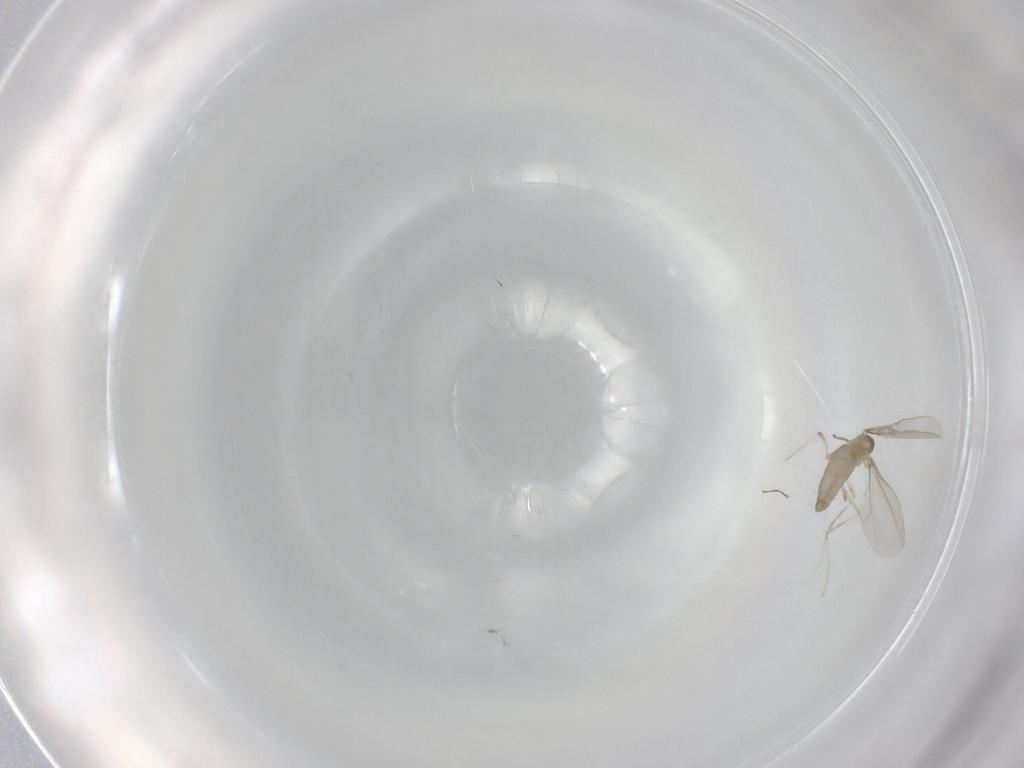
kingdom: Animalia
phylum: Arthropoda
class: Insecta
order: Diptera
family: Cecidomyiidae
